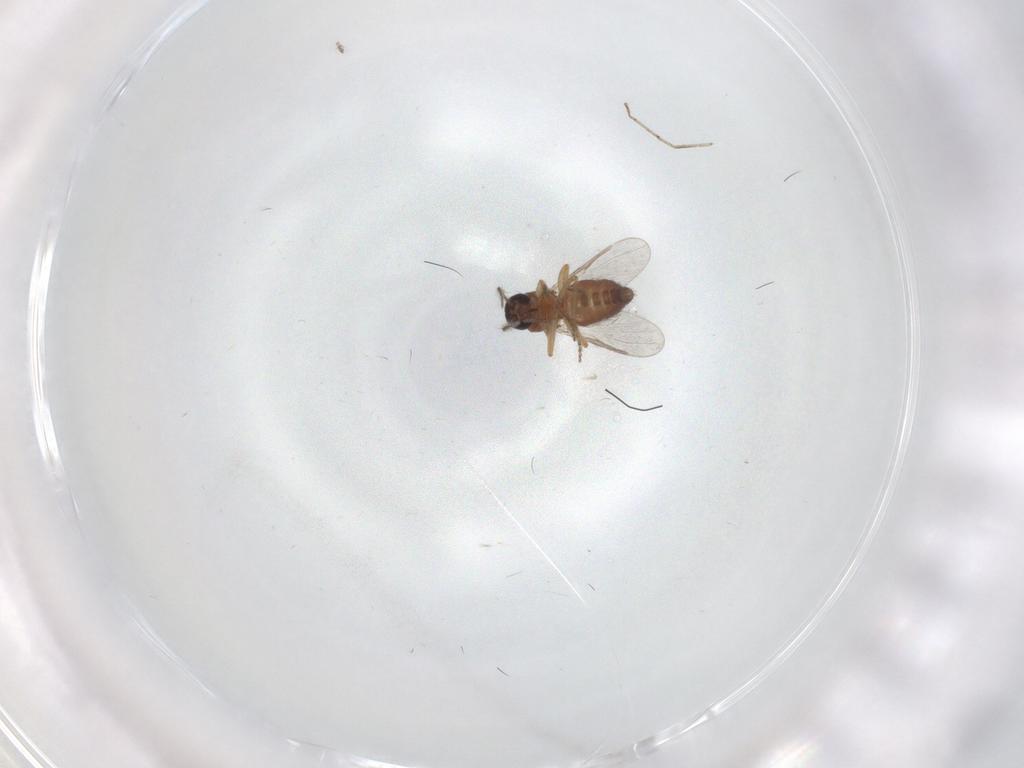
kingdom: Animalia
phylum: Arthropoda
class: Insecta
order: Diptera
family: Ceratopogonidae
